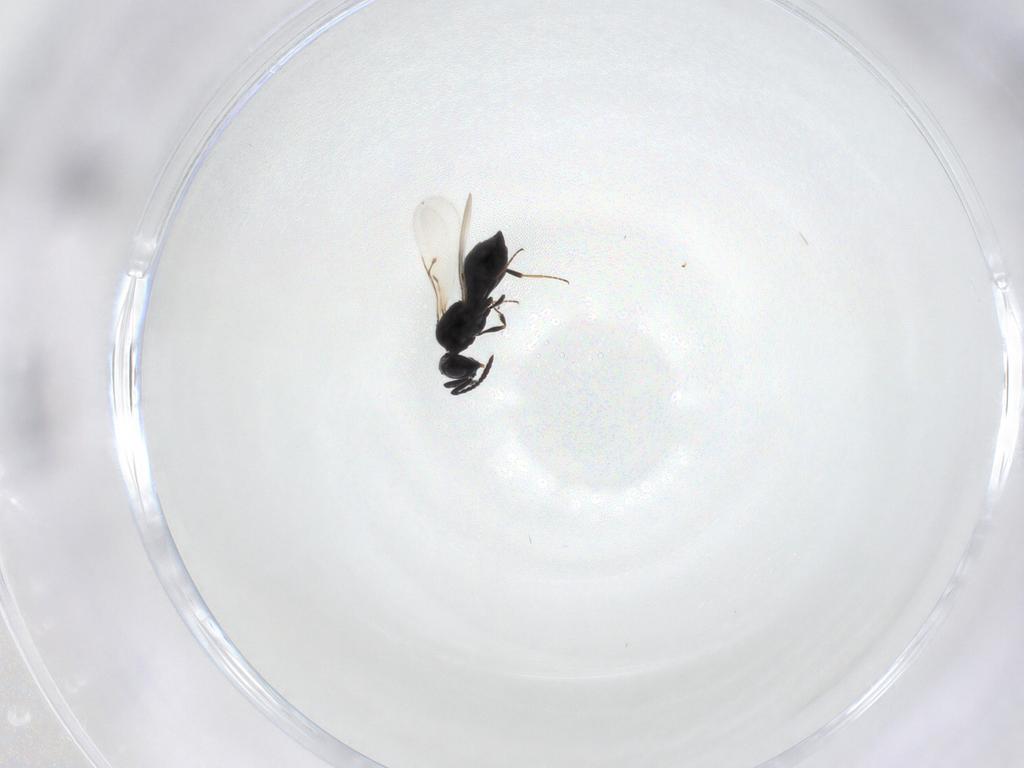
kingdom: Animalia
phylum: Arthropoda
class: Insecta
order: Hymenoptera
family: Scelionidae
